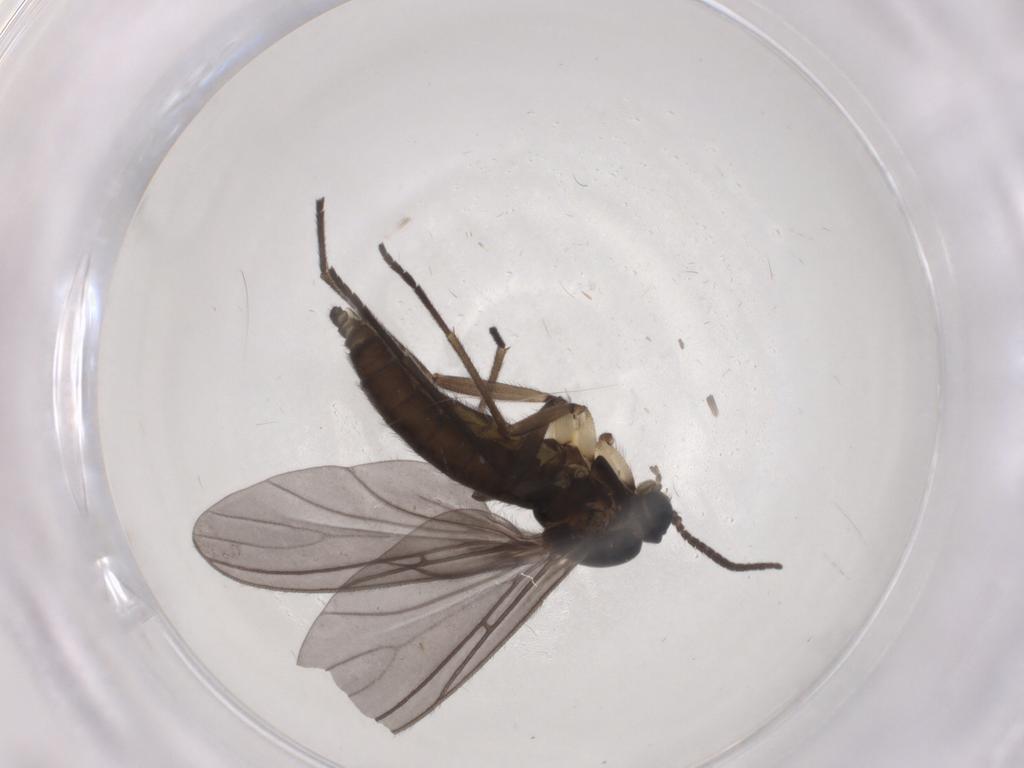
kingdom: Animalia
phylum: Arthropoda
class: Insecta
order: Diptera
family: Sciaridae
